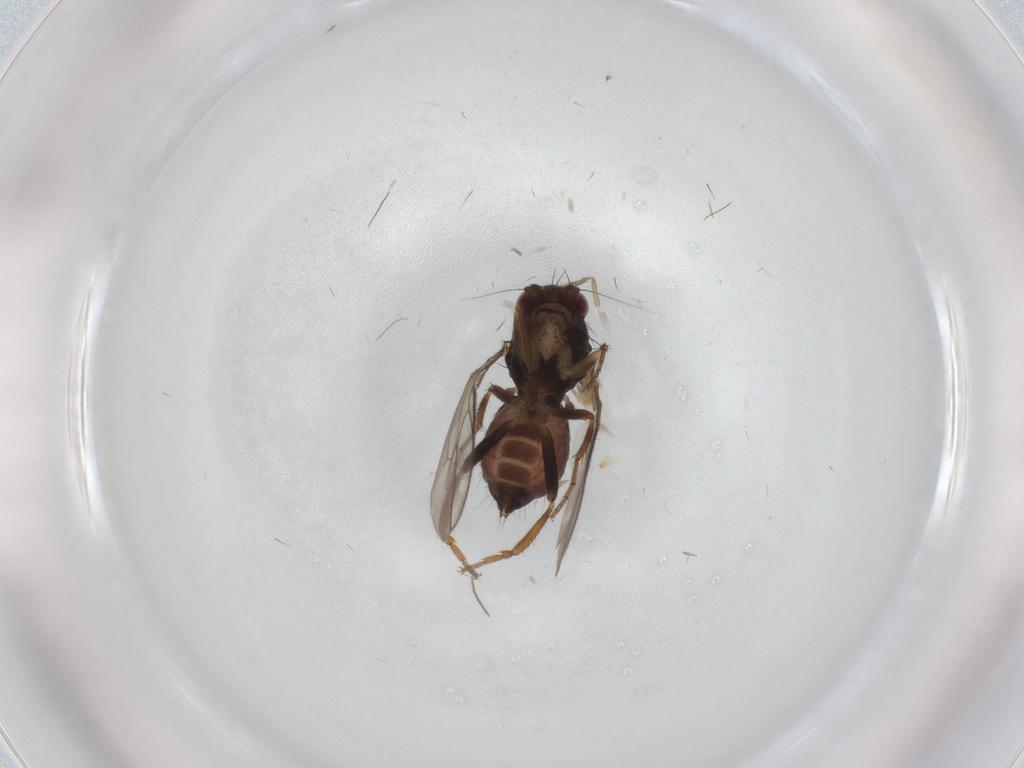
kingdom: Animalia
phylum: Arthropoda
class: Insecta
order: Diptera
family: Sphaeroceridae
